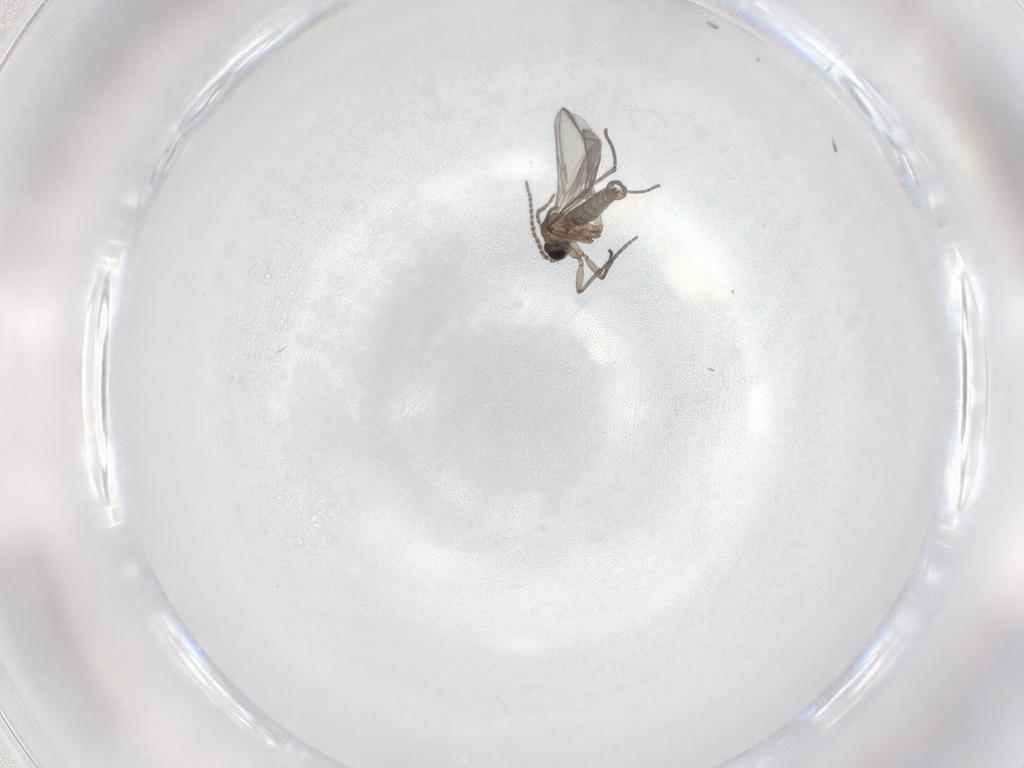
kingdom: Animalia
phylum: Arthropoda
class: Insecta
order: Diptera
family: Sciaridae
